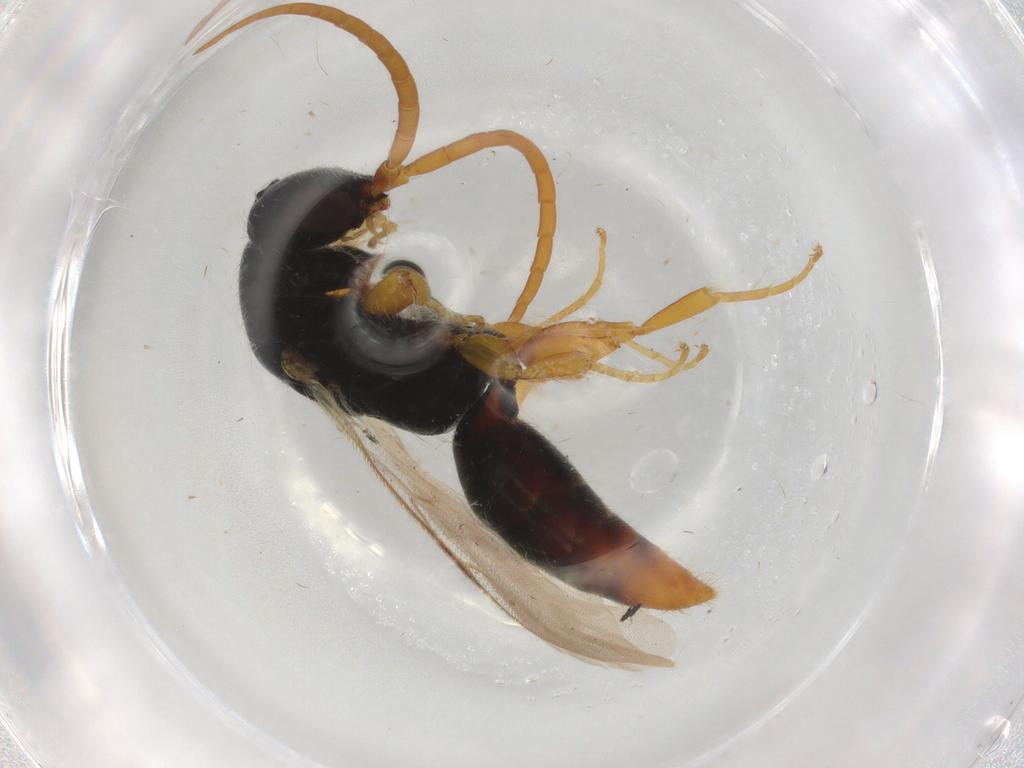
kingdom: Animalia
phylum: Arthropoda
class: Insecta
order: Hymenoptera
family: Bethylidae
